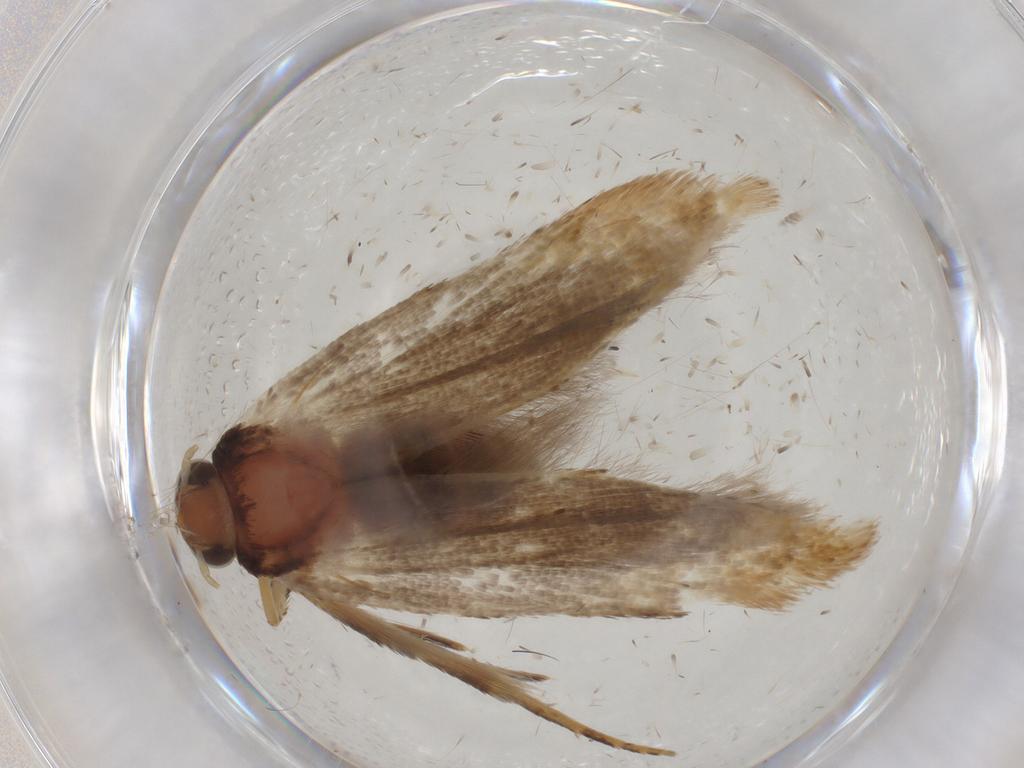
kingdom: Animalia
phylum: Arthropoda
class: Insecta
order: Lepidoptera
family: Gelechiidae
